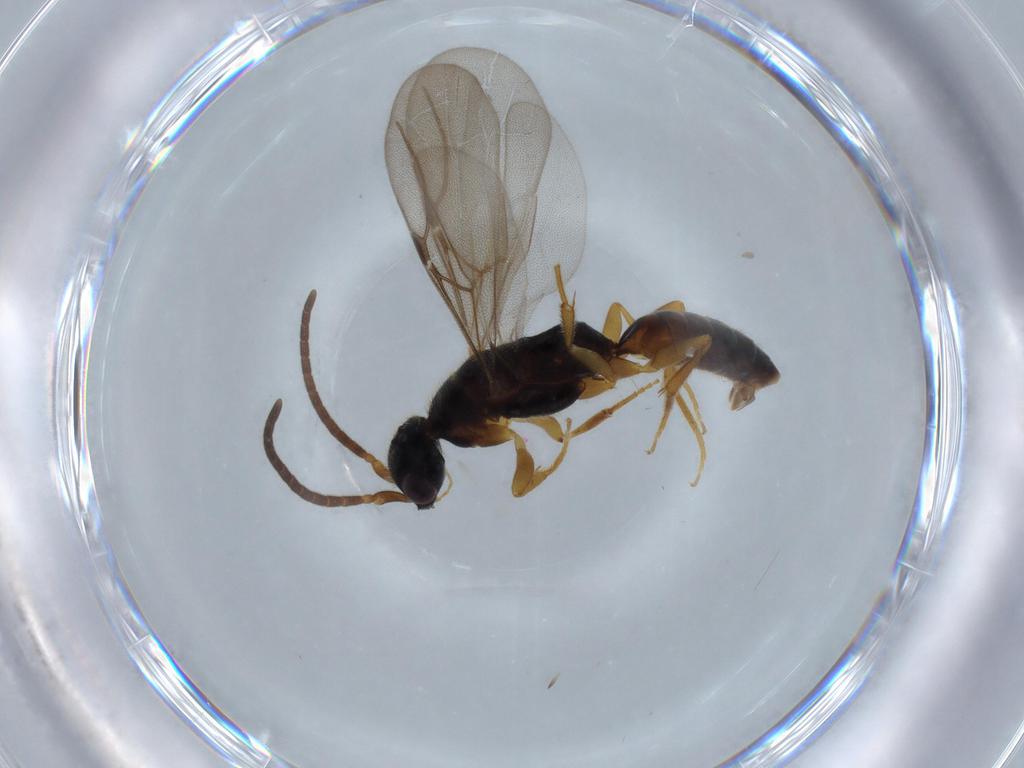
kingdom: Animalia
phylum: Arthropoda
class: Insecta
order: Hymenoptera
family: Bethylidae
